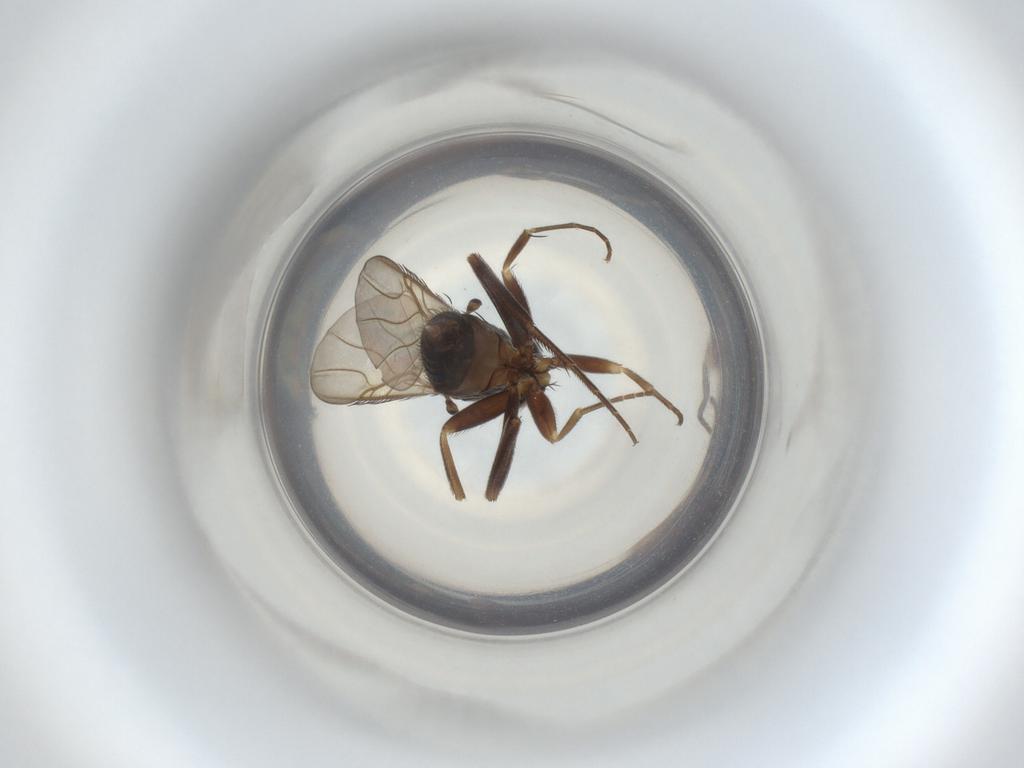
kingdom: Animalia
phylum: Arthropoda
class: Insecta
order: Diptera
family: Phoridae
